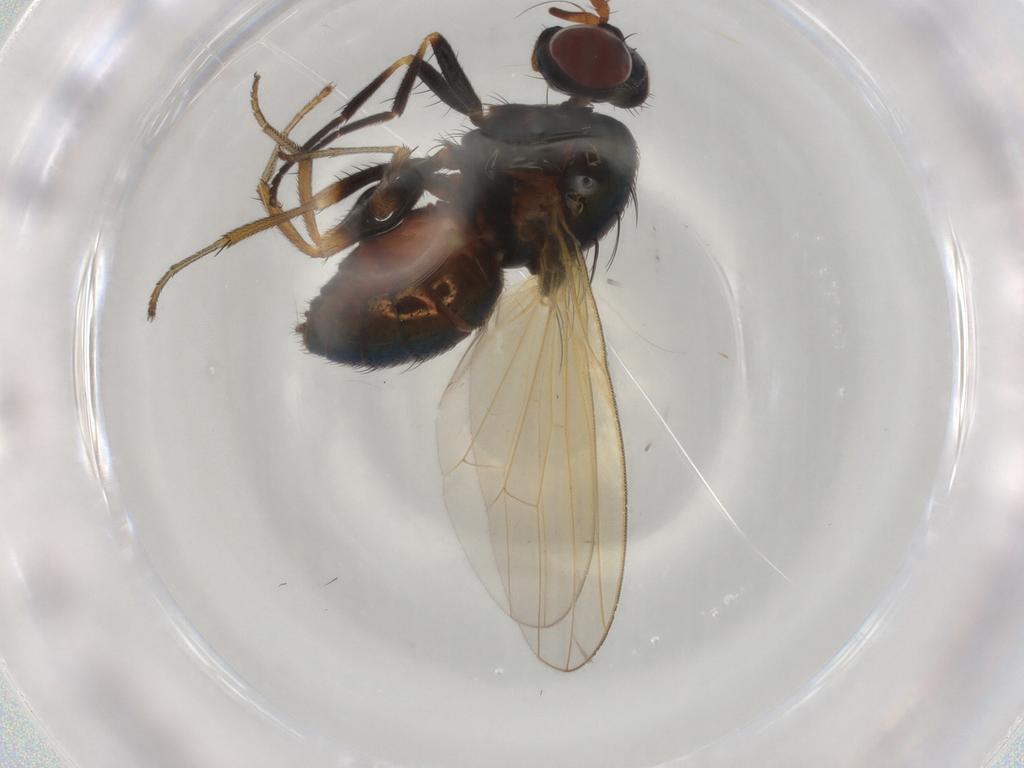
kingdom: Animalia
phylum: Arthropoda
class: Insecta
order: Diptera
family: Lauxaniidae
